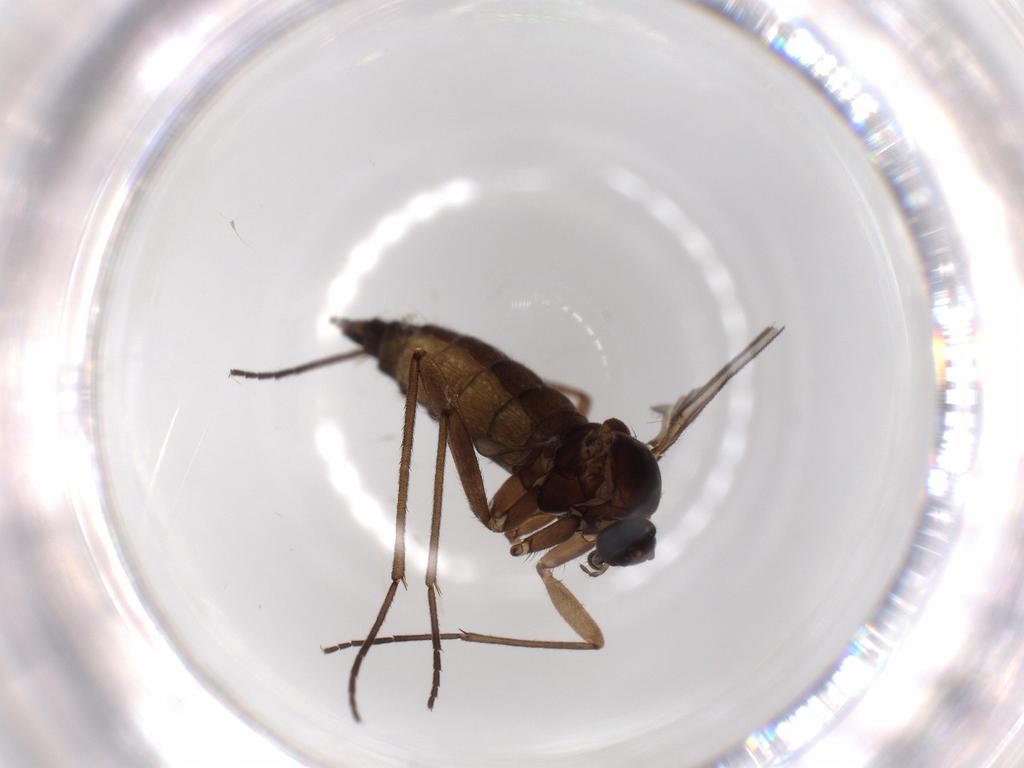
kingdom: Animalia
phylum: Arthropoda
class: Insecta
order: Diptera
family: Sciaridae
